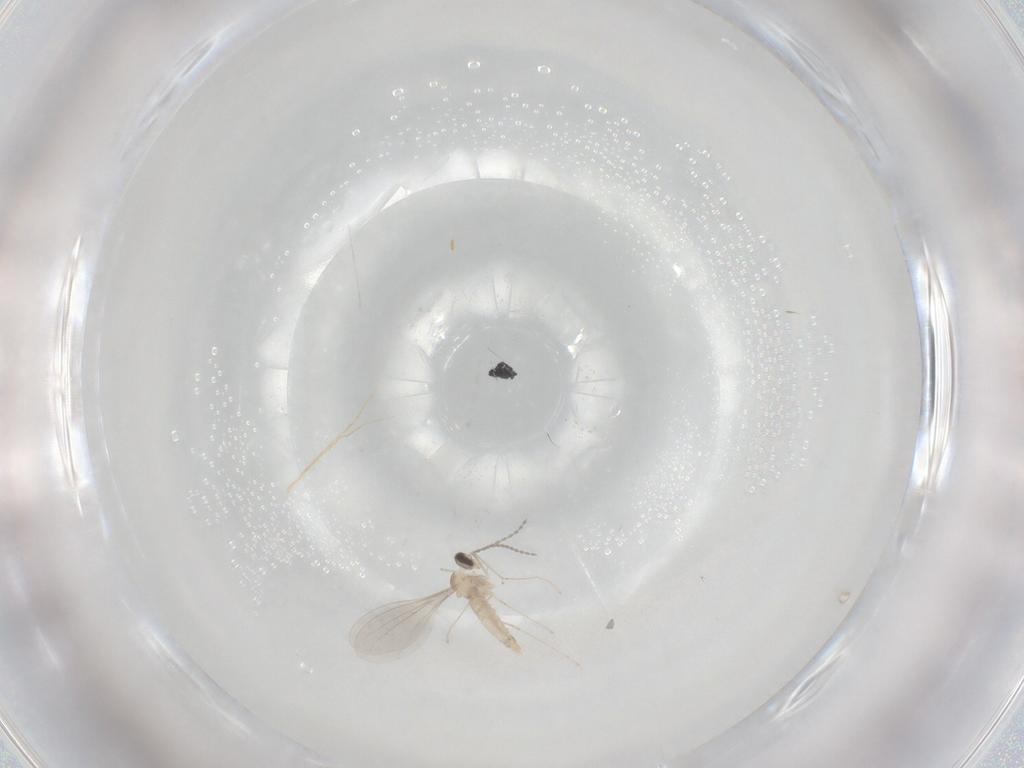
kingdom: Animalia
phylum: Arthropoda
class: Insecta
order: Diptera
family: Cecidomyiidae
